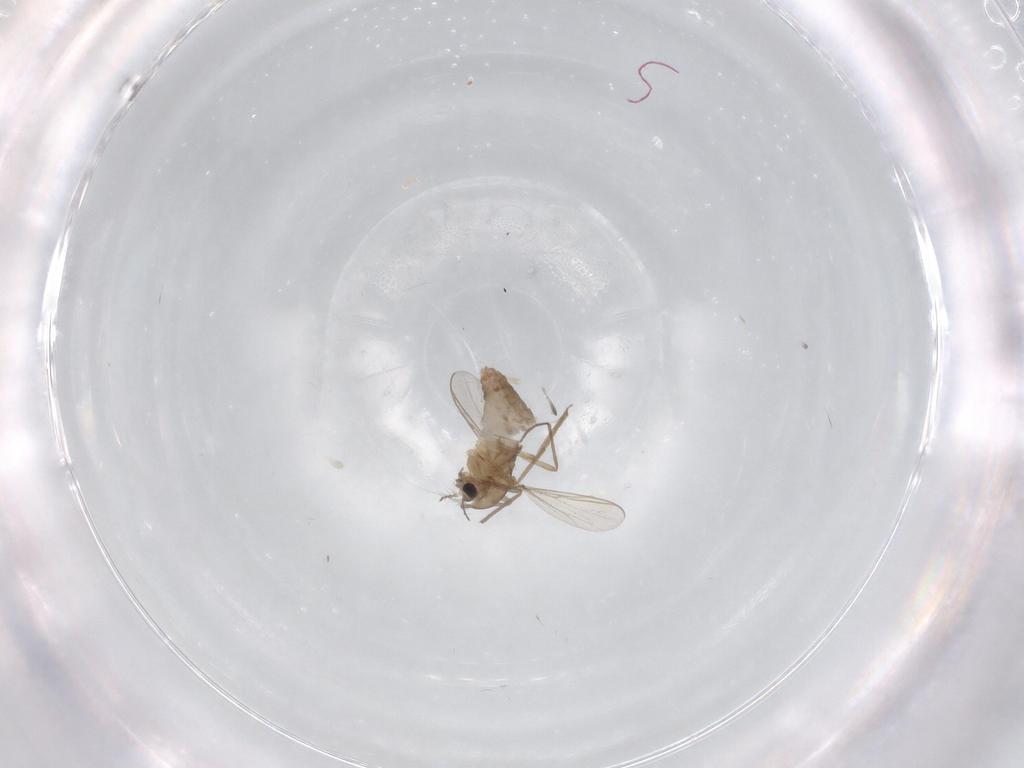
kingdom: Animalia
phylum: Arthropoda
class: Insecta
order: Diptera
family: Chironomidae
